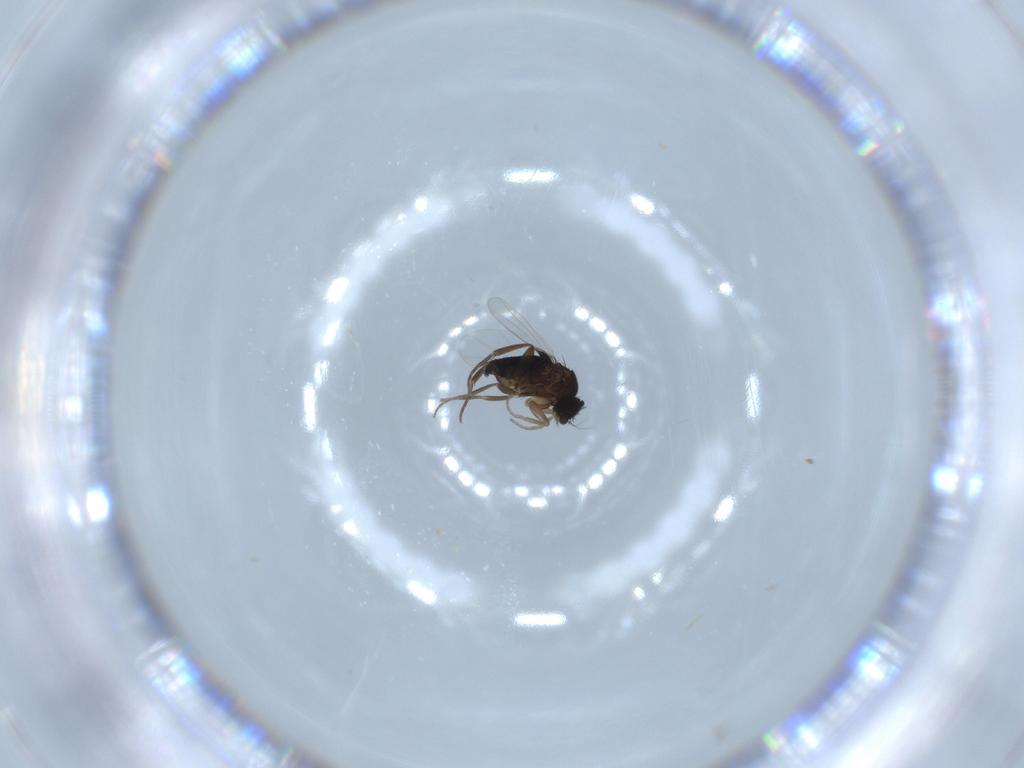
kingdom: Animalia
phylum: Arthropoda
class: Insecta
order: Diptera
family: Phoridae
